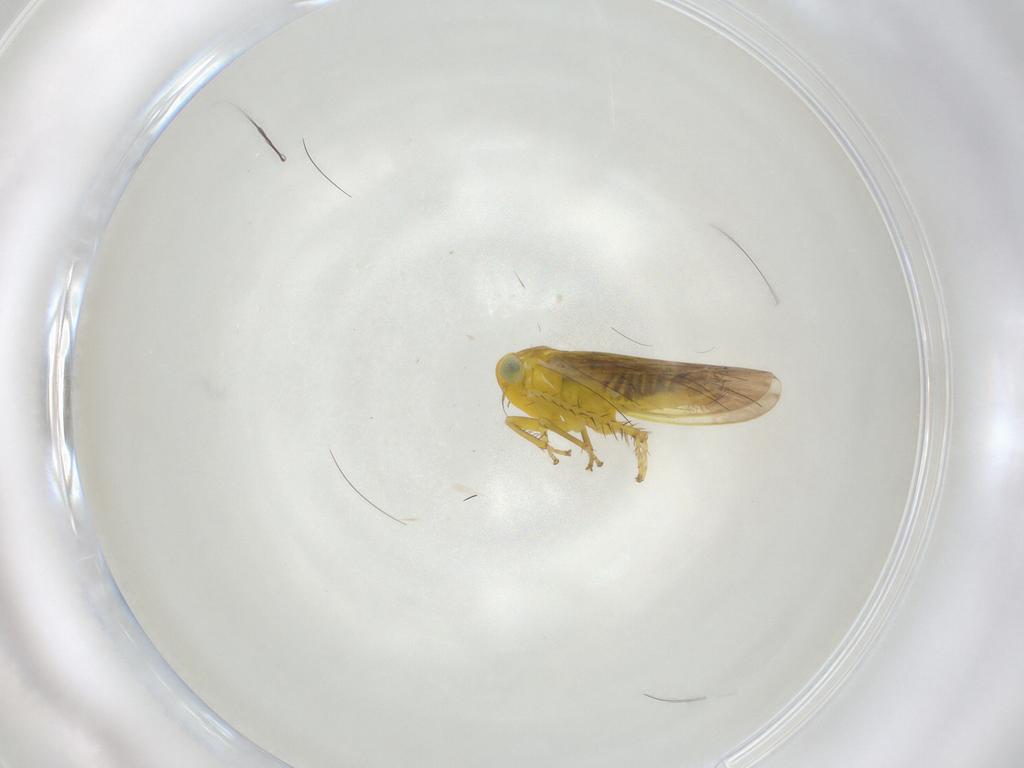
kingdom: Animalia
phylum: Arthropoda
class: Insecta
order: Hemiptera
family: Cicadellidae
